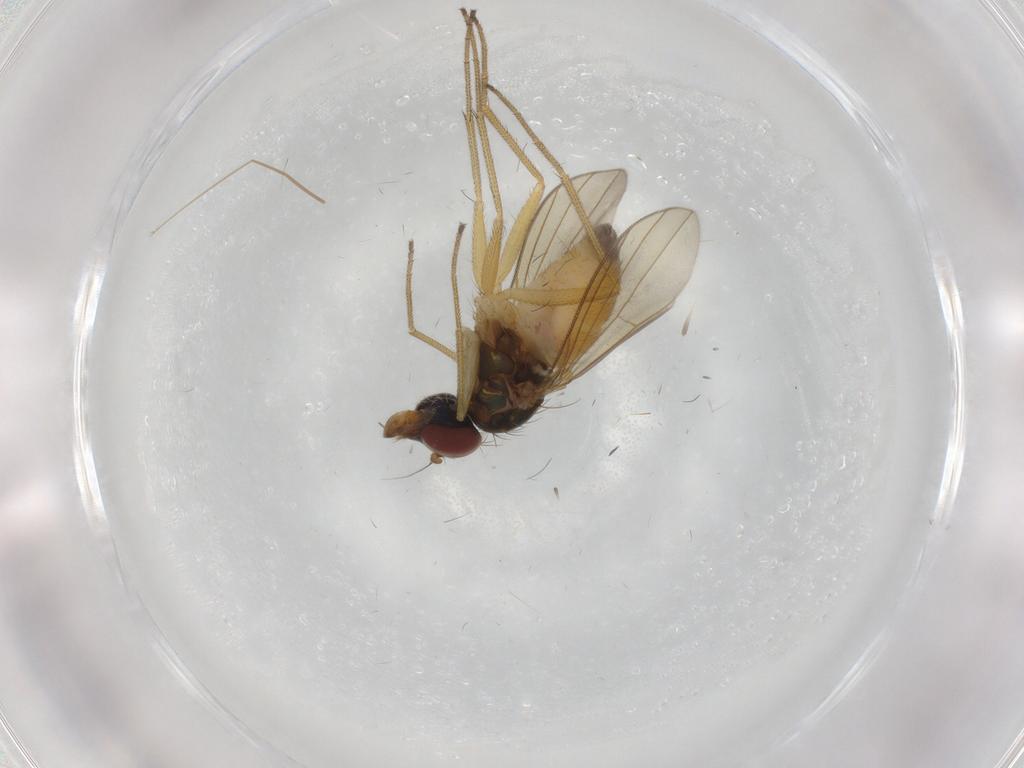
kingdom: Animalia
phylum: Arthropoda
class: Insecta
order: Diptera
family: Dolichopodidae
